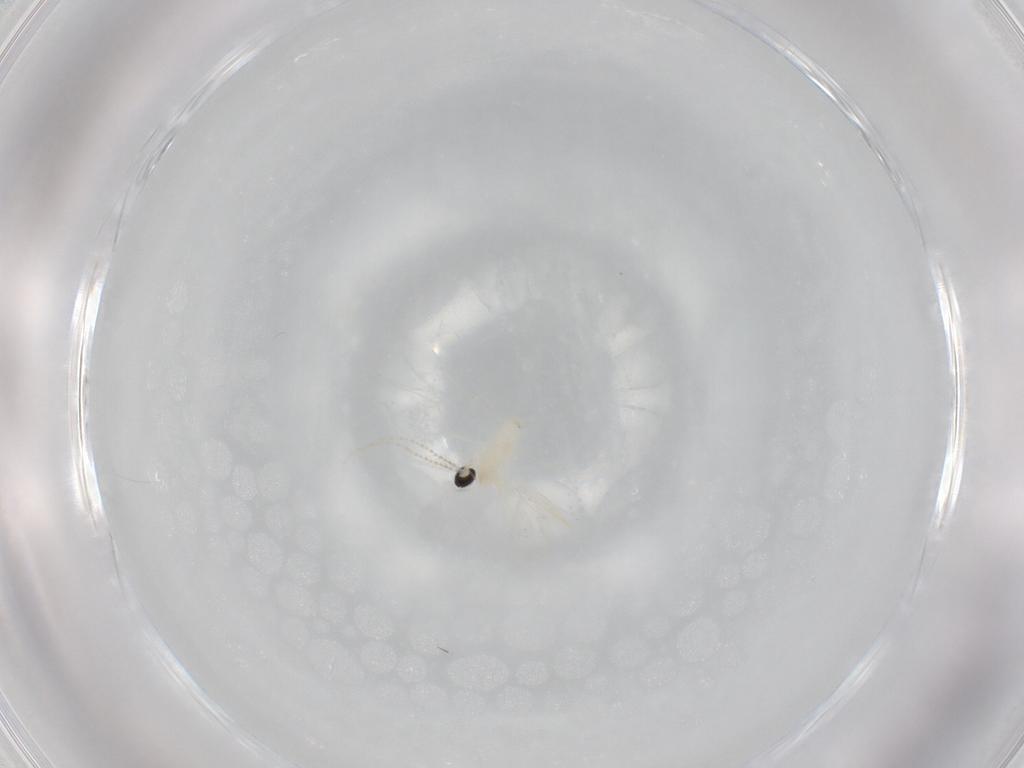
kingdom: Animalia
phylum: Arthropoda
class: Insecta
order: Diptera
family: Cecidomyiidae
